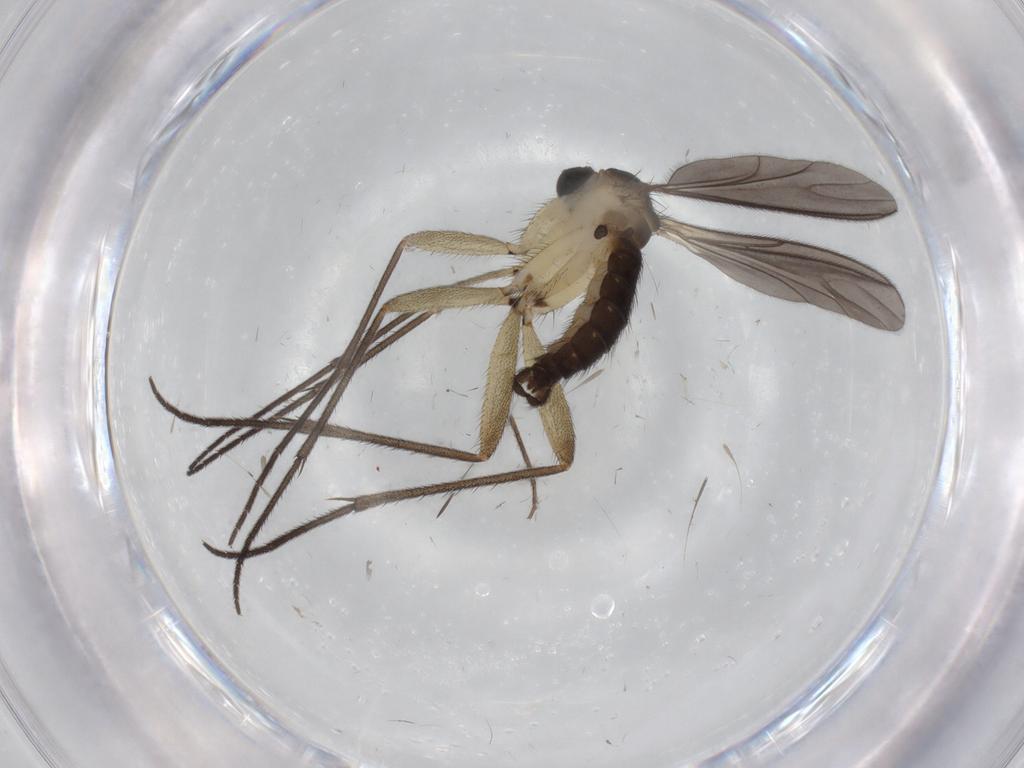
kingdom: Animalia
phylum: Arthropoda
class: Insecta
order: Diptera
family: Sciaridae
